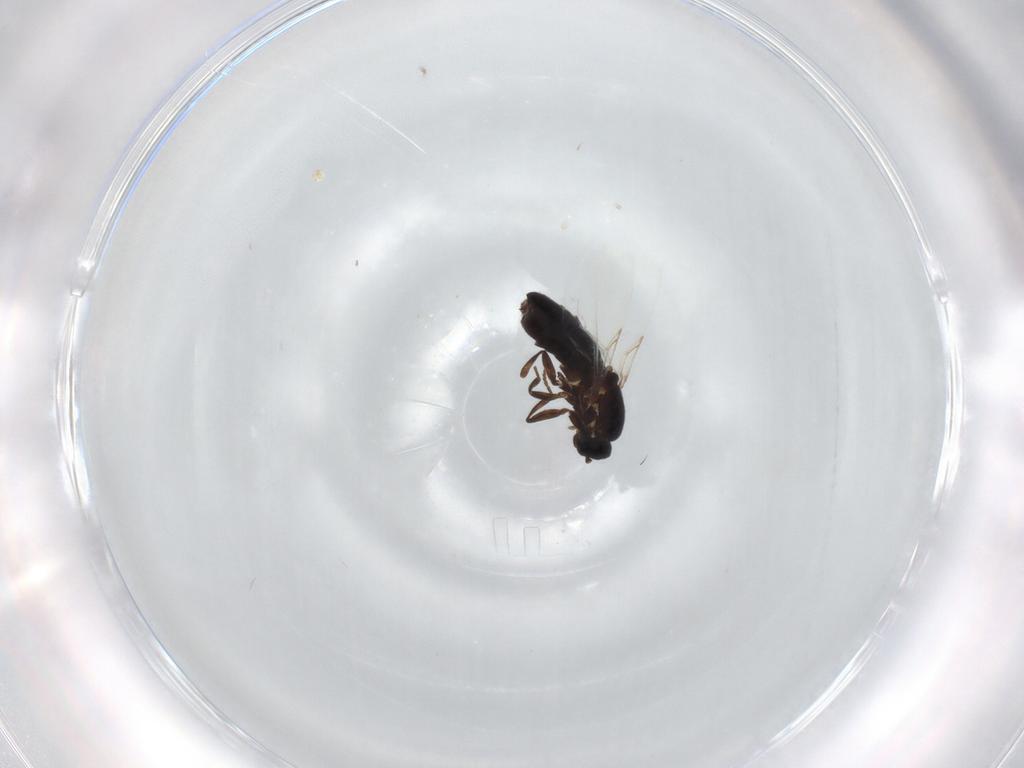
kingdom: Animalia
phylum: Arthropoda
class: Insecta
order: Diptera
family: Scatopsidae
